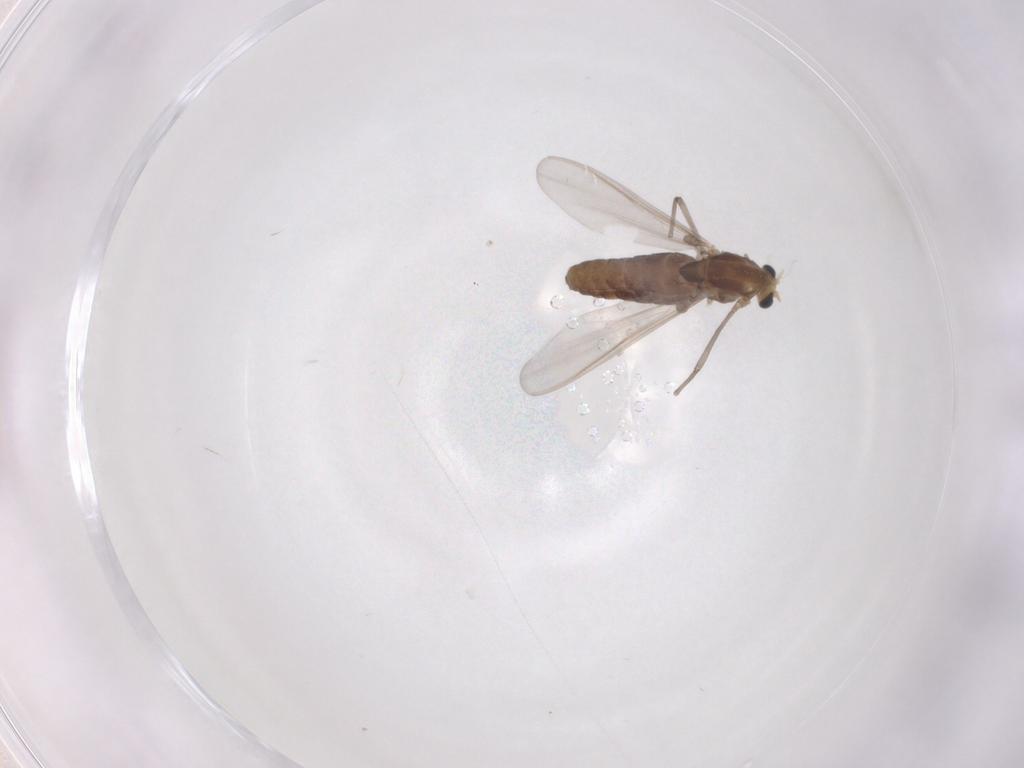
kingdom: Animalia
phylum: Arthropoda
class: Insecta
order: Diptera
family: Chironomidae
